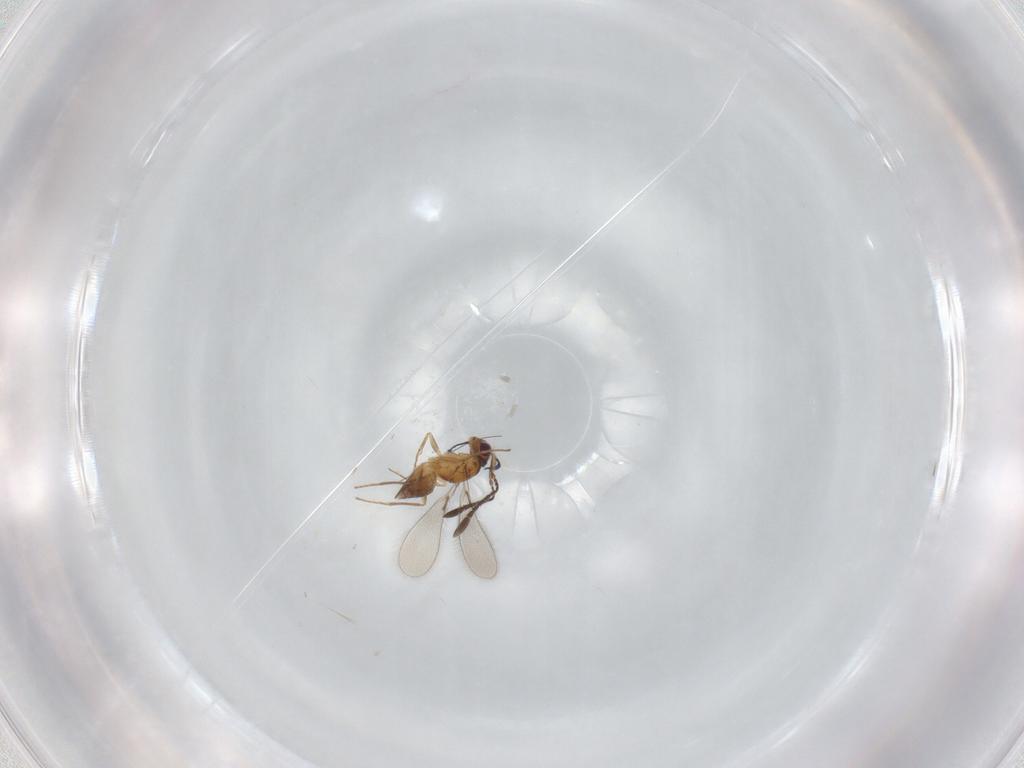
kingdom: Animalia
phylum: Arthropoda
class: Insecta
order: Hymenoptera
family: Mymaridae
